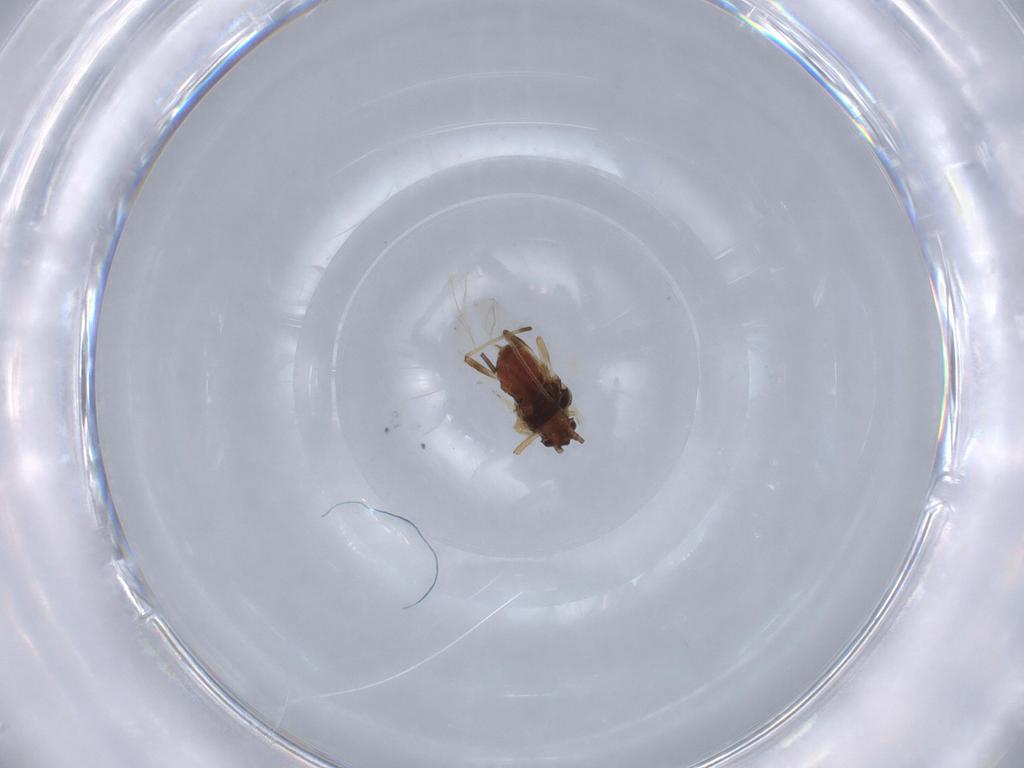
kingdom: Animalia
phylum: Arthropoda
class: Insecta
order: Hemiptera
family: Aphididae
